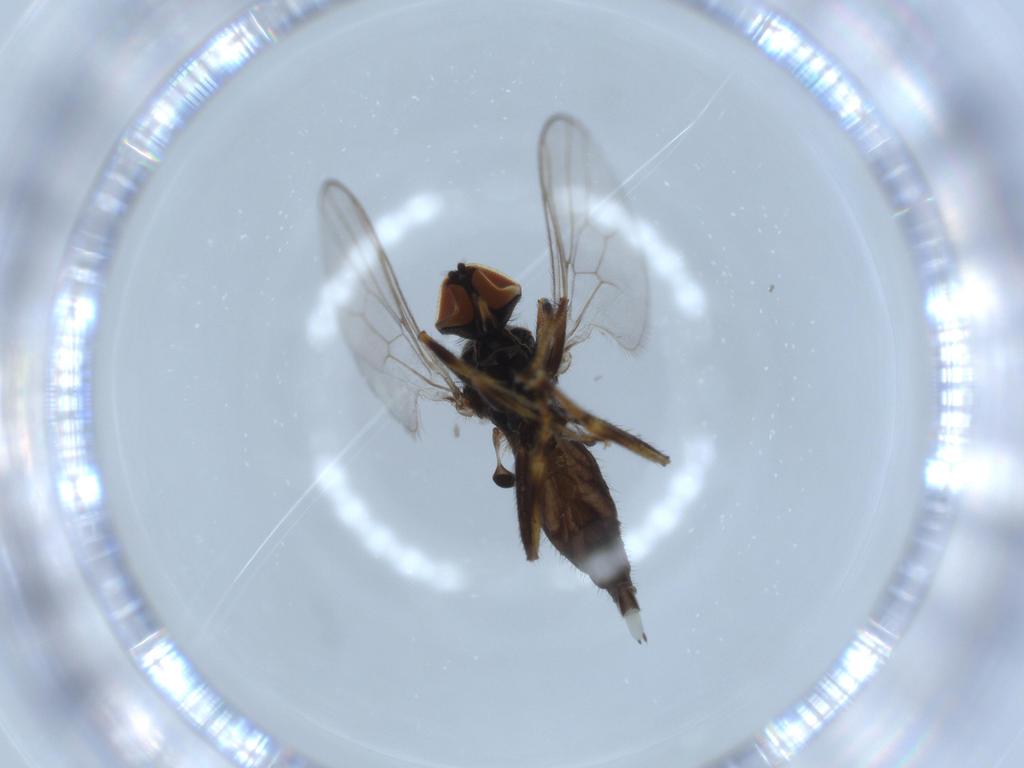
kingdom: Animalia
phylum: Arthropoda
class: Insecta
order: Diptera
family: Hybotidae
